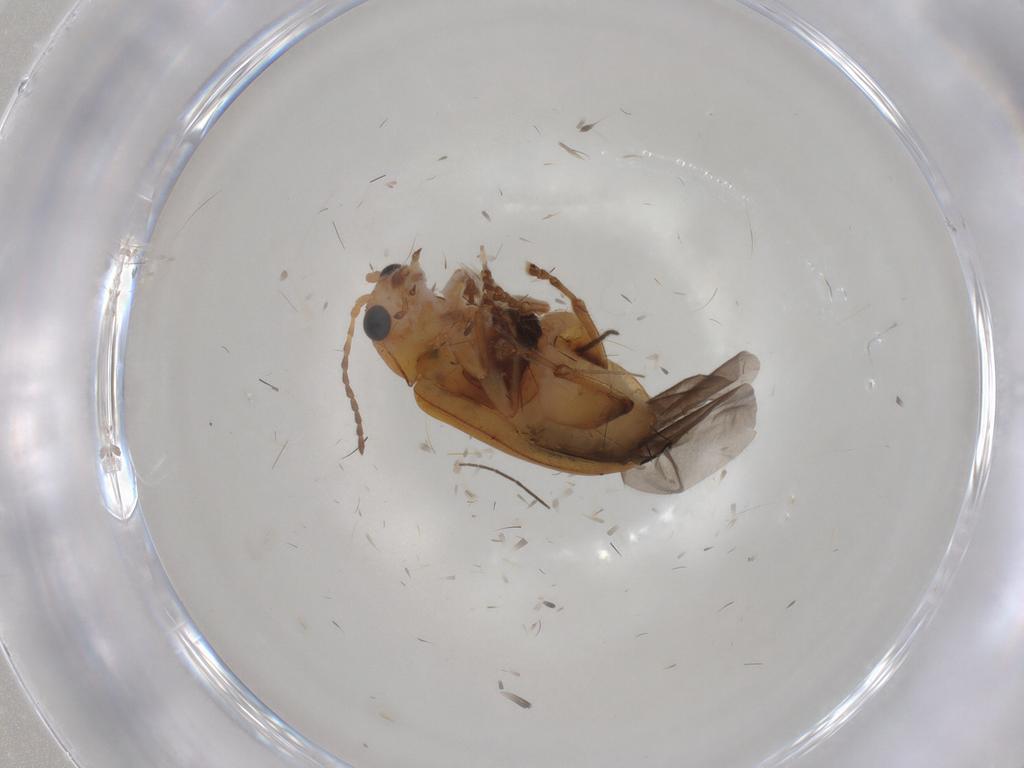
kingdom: Animalia
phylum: Arthropoda
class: Insecta
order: Coleoptera
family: Chrysomelidae
